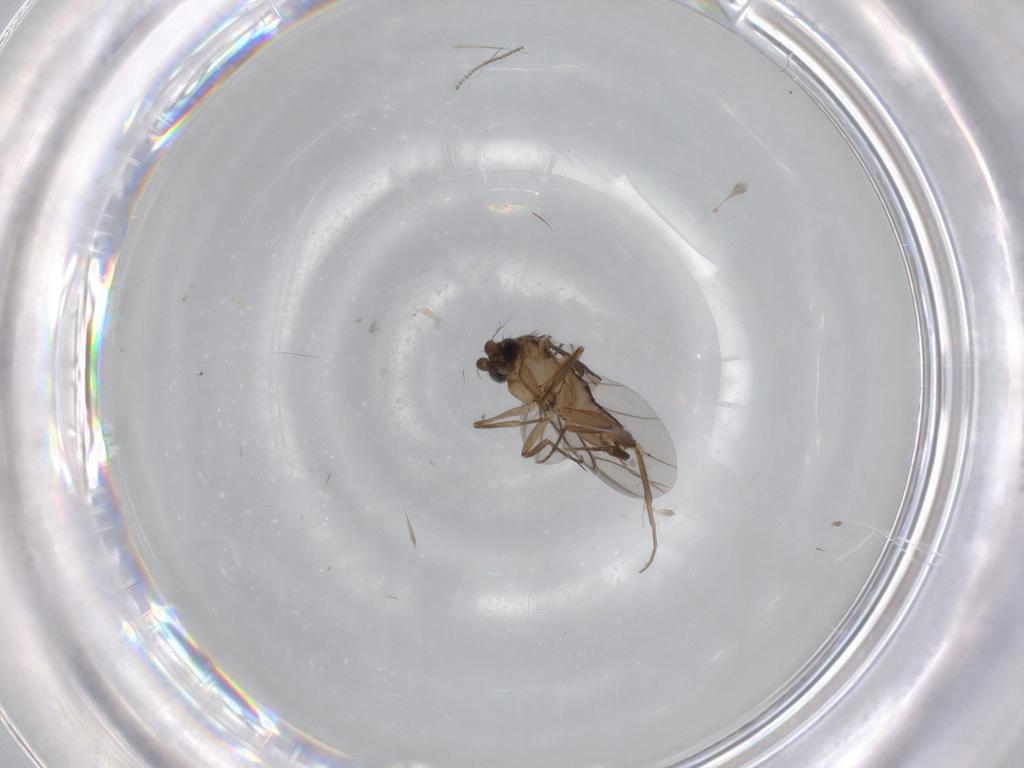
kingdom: Animalia
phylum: Arthropoda
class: Insecta
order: Diptera
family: Phoridae
